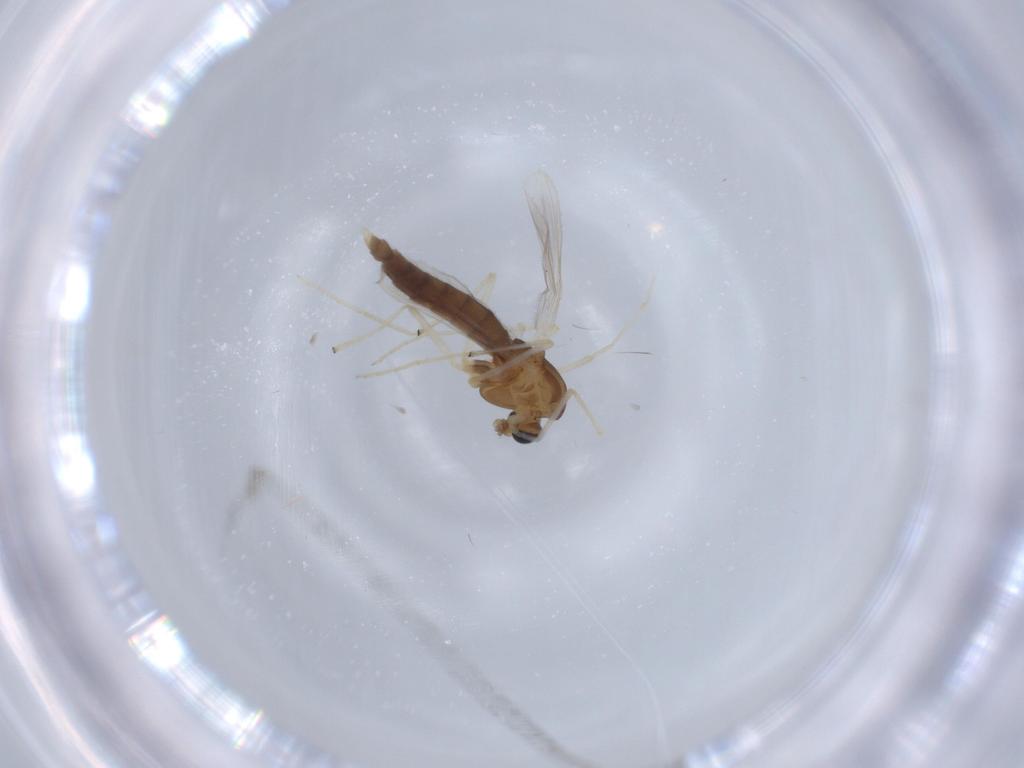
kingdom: Animalia
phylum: Arthropoda
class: Insecta
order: Diptera
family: Chironomidae
